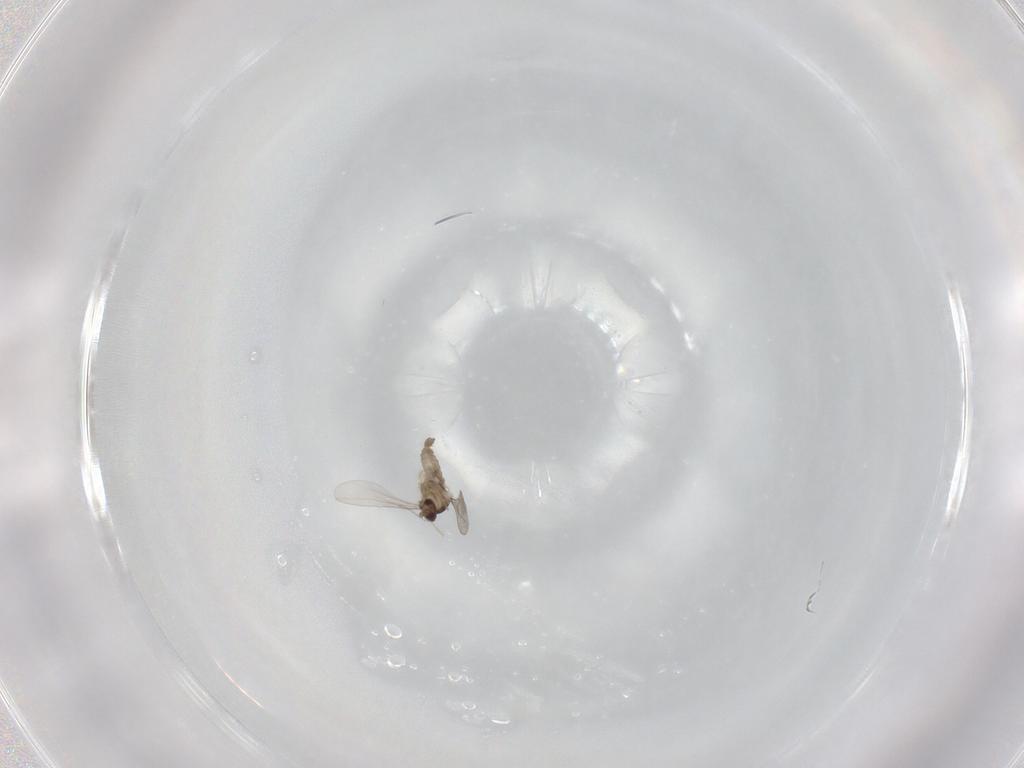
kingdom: Animalia
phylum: Arthropoda
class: Insecta
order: Diptera
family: Cecidomyiidae
